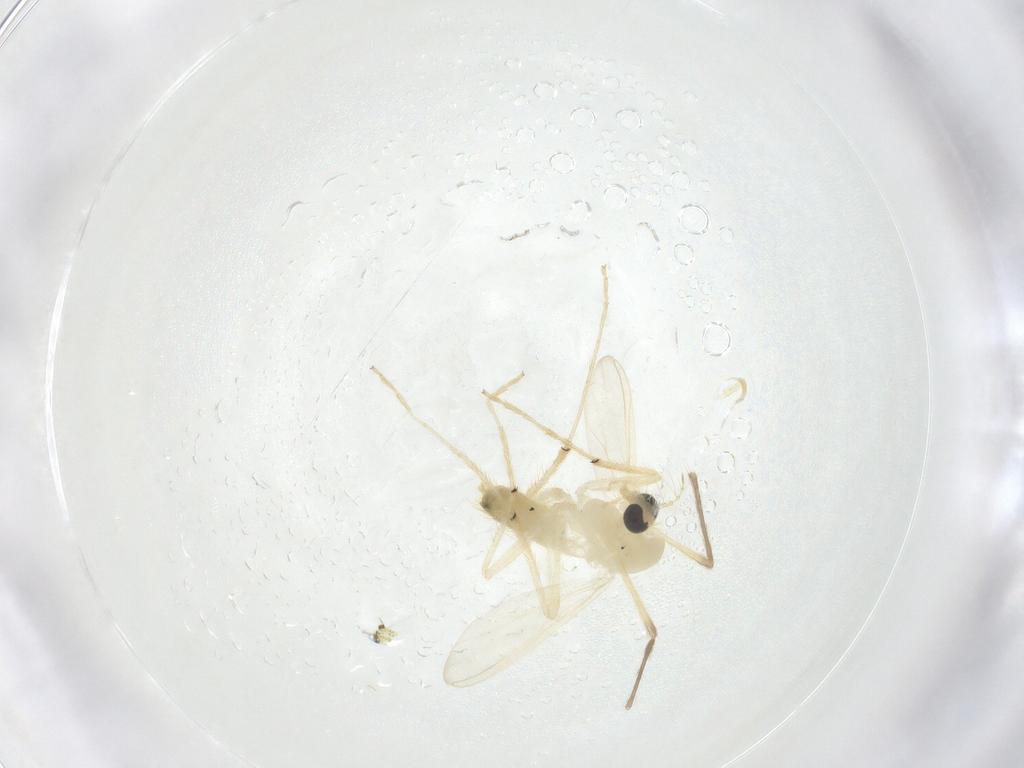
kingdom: Animalia
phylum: Arthropoda
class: Insecta
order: Diptera
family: Chironomidae
